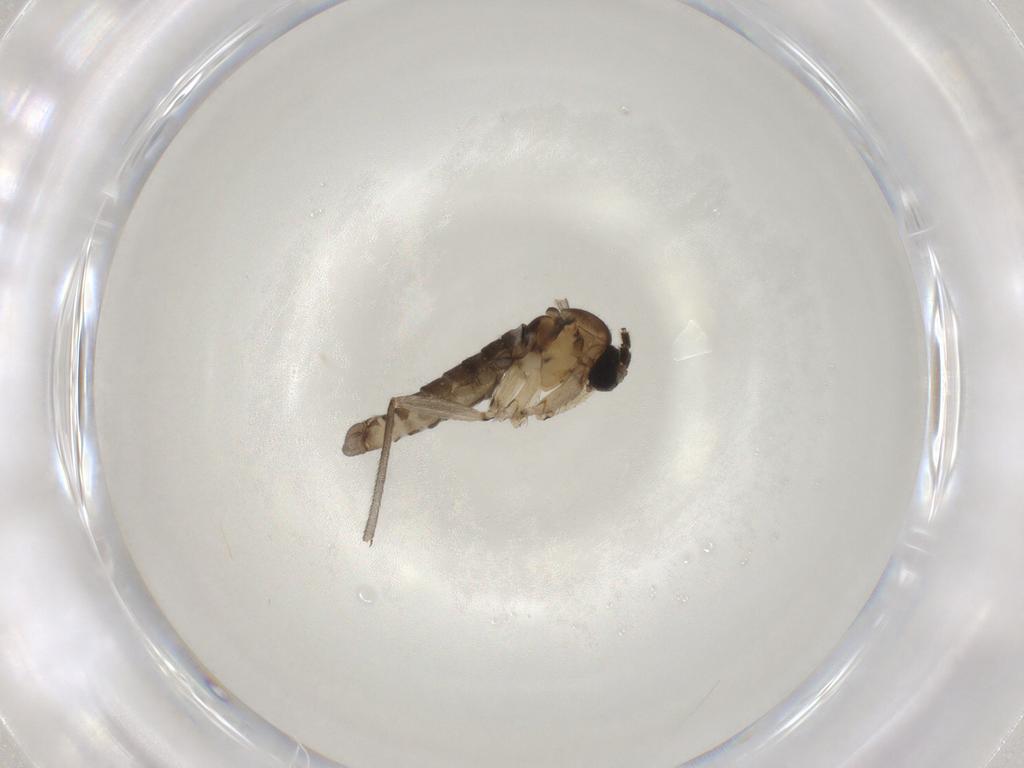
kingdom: Animalia
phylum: Arthropoda
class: Insecta
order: Diptera
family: Sciaridae
